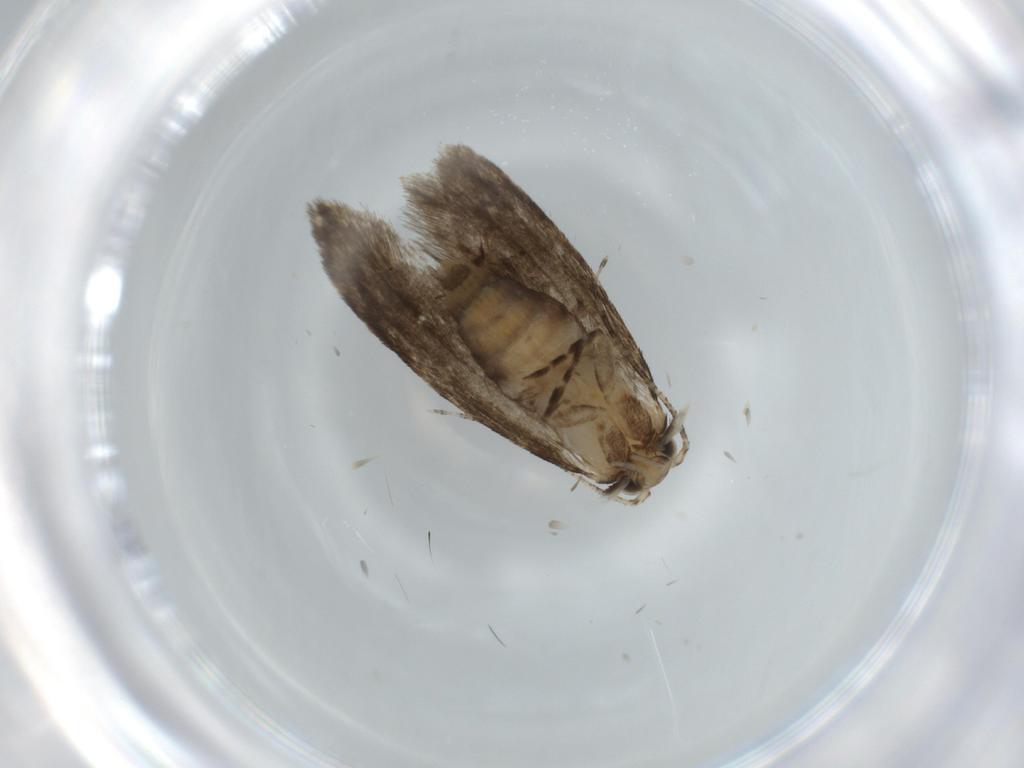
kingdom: Animalia
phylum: Arthropoda
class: Insecta
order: Lepidoptera
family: Tineidae
